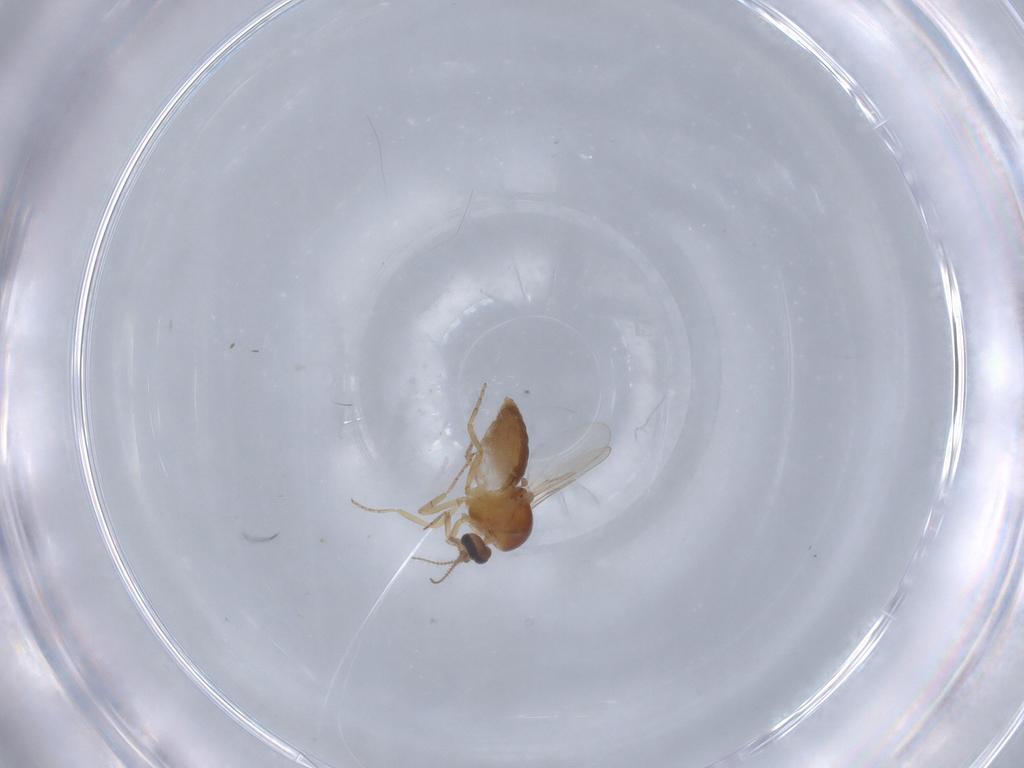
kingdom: Animalia
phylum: Arthropoda
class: Insecta
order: Diptera
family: Ceratopogonidae
